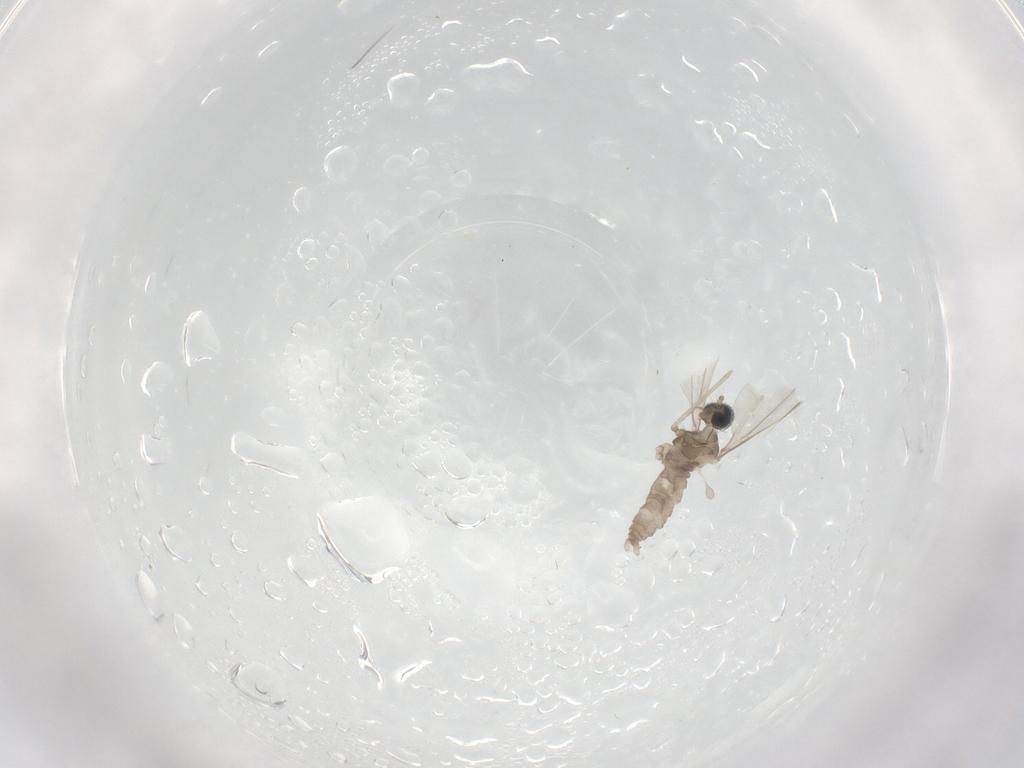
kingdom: Animalia
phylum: Arthropoda
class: Insecta
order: Diptera
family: Cecidomyiidae
